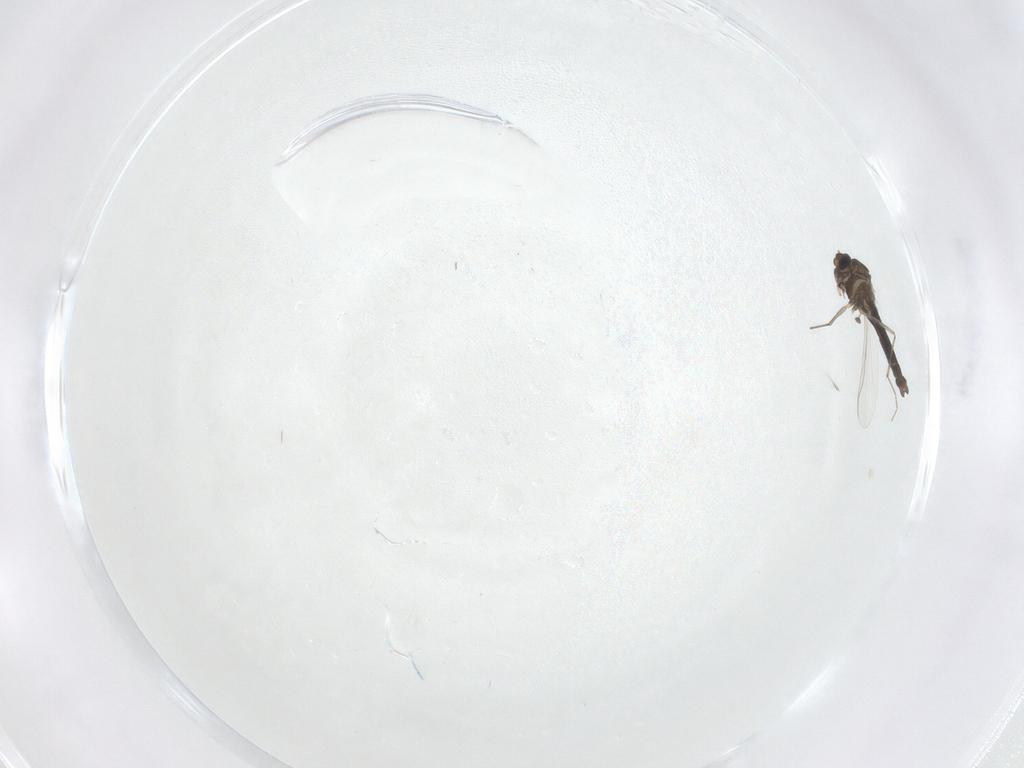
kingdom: Animalia
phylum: Arthropoda
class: Insecta
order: Diptera
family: Chironomidae
